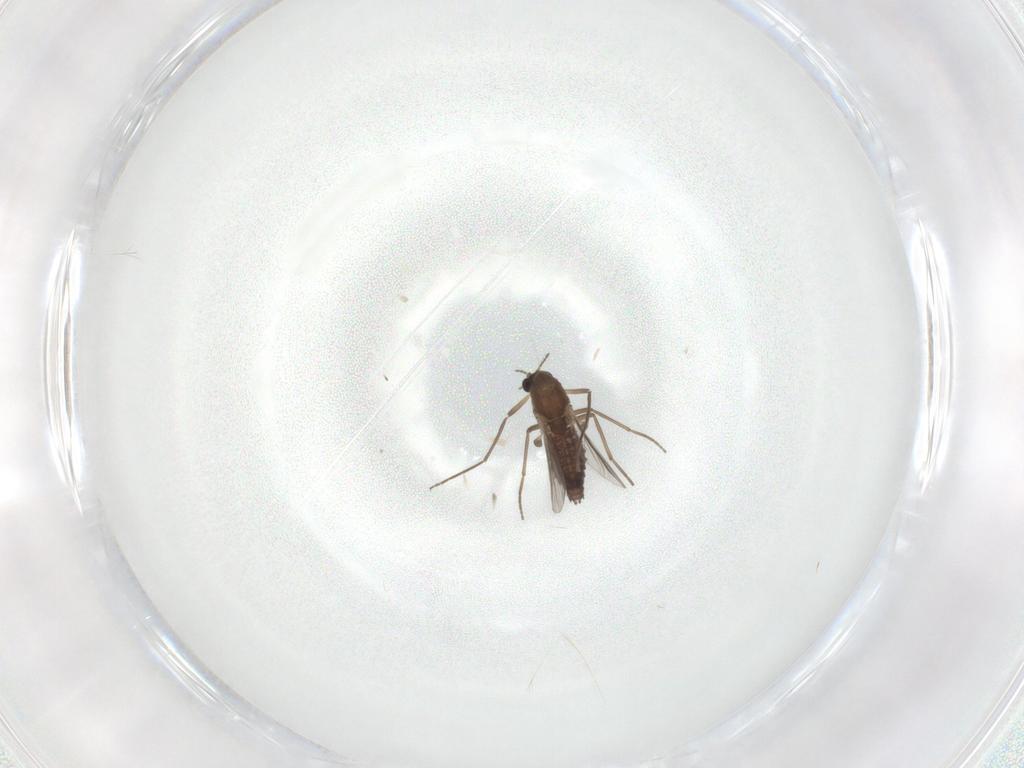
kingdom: Animalia
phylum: Arthropoda
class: Insecta
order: Diptera
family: Chironomidae
